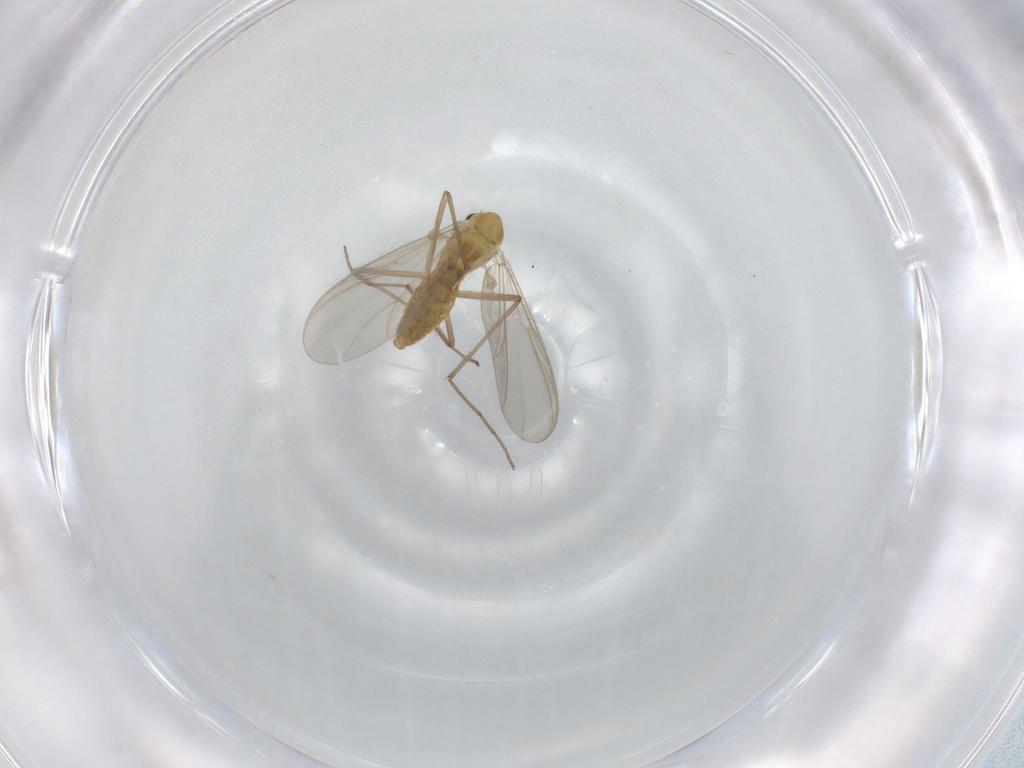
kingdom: Animalia
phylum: Arthropoda
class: Insecta
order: Diptera
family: Chironomidae
